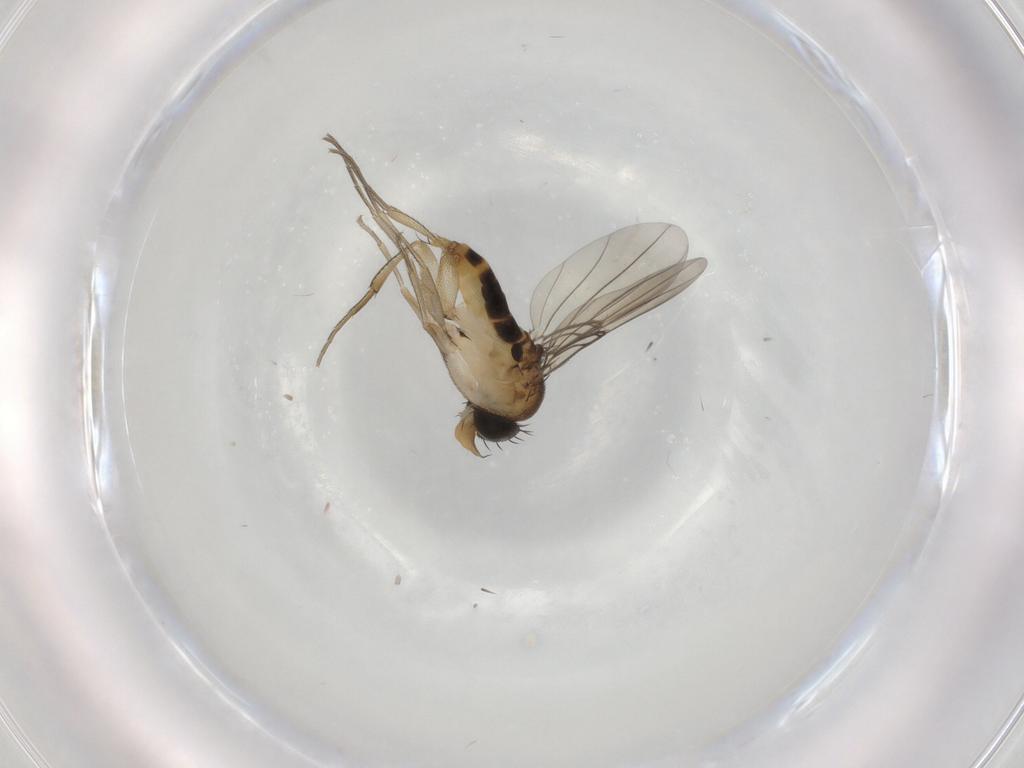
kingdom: Animalia
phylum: Arthropoda
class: Insecta
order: Diptera
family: Phoridae
